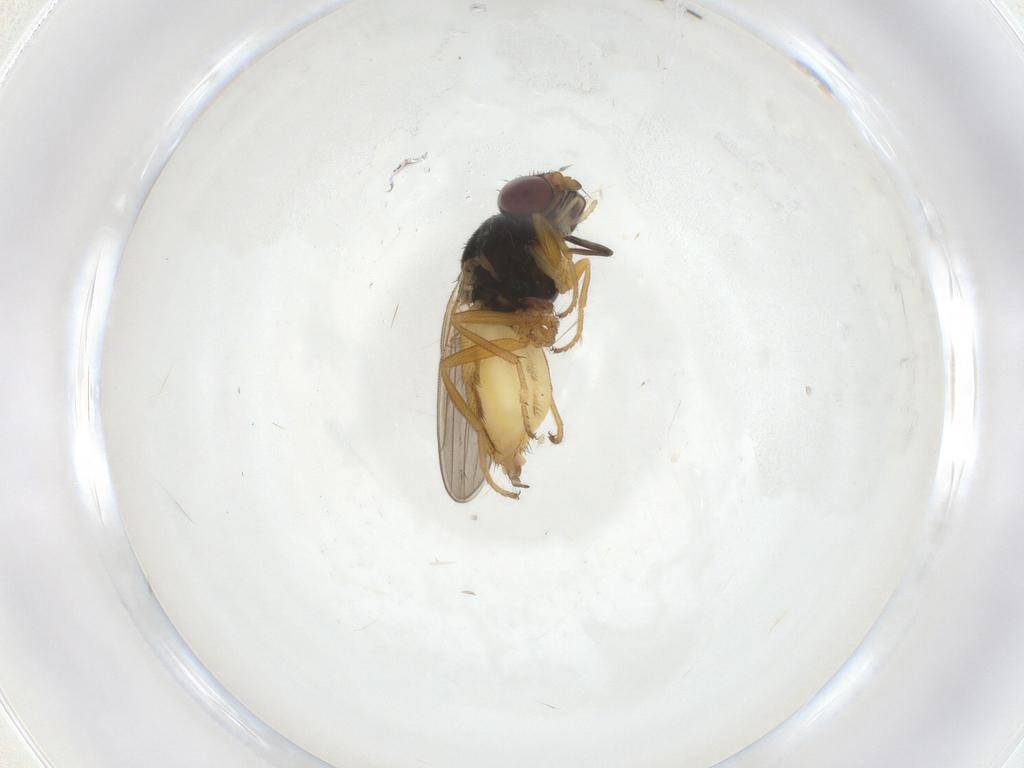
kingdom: Animalia
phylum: Arthropoda
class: Insecta
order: Diptera
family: Chloropidae
